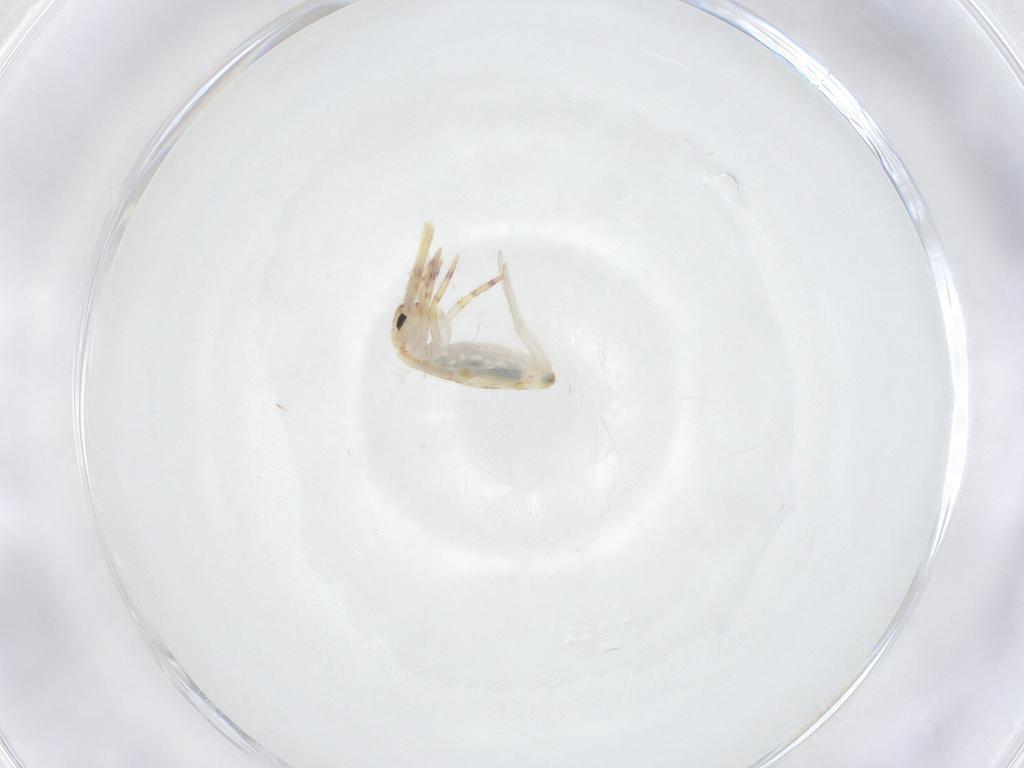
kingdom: Animalia
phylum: Arthropoda
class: Collembola
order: Entomobryomorpha
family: Entomobryidae
